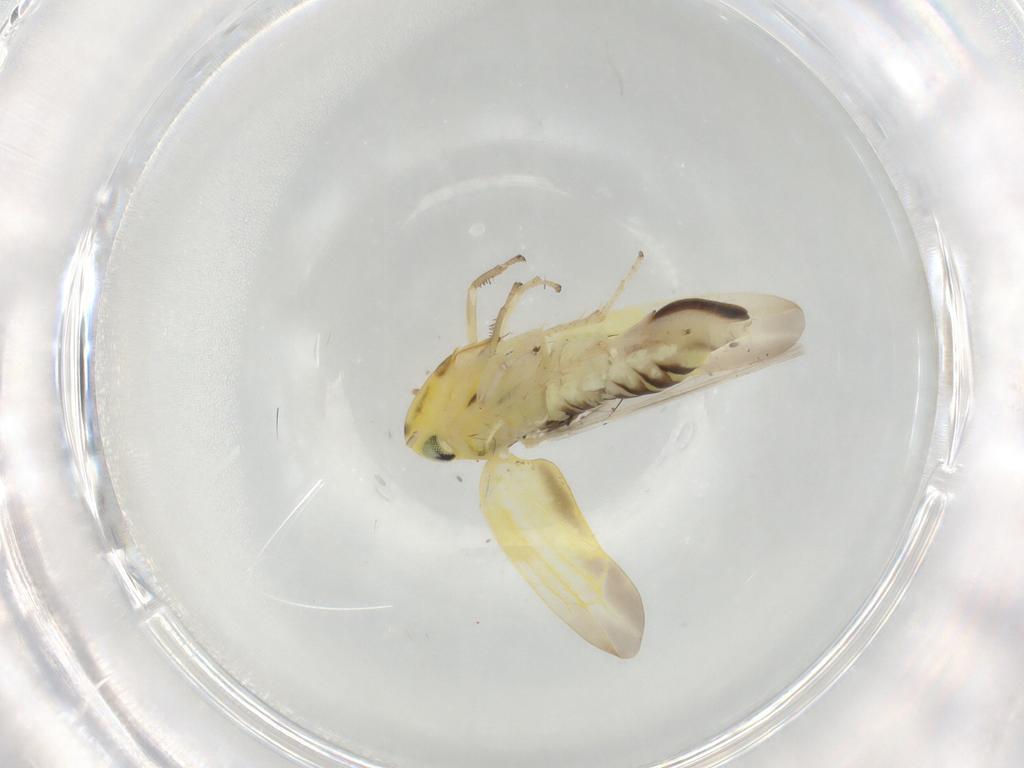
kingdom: Animalia
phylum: Arthropoda
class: Insecta
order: Hemiptera
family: Cicadellidae
